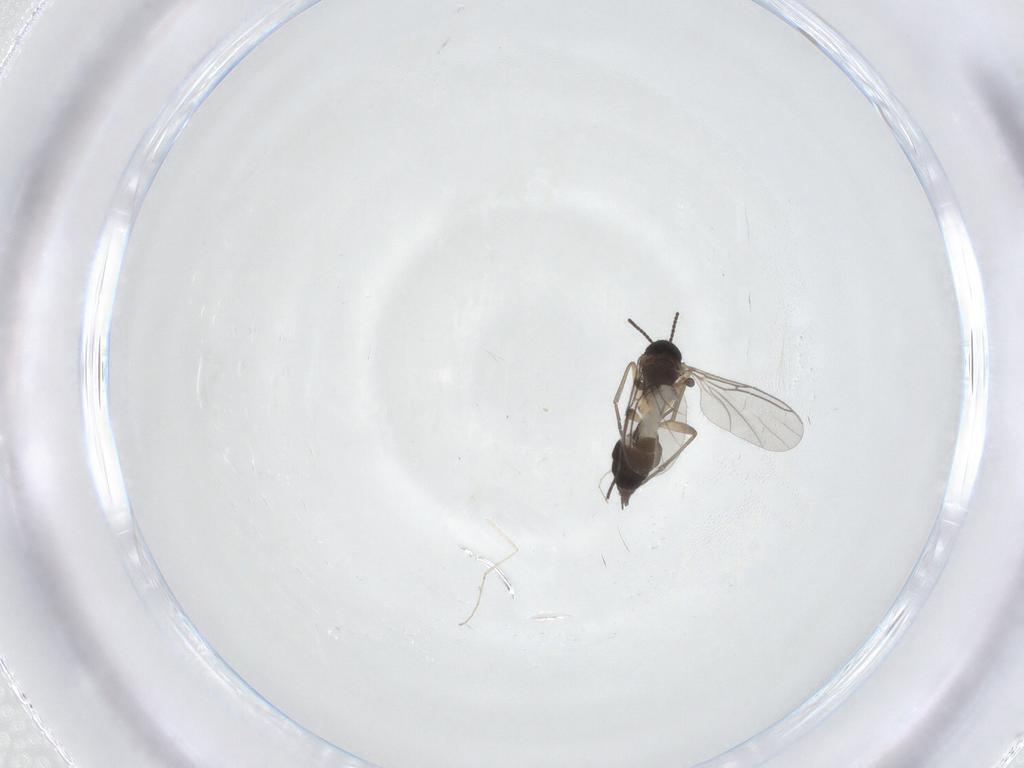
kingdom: Animalia
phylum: Arthropoda
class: Insecta
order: Diptera
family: Sciaridae
